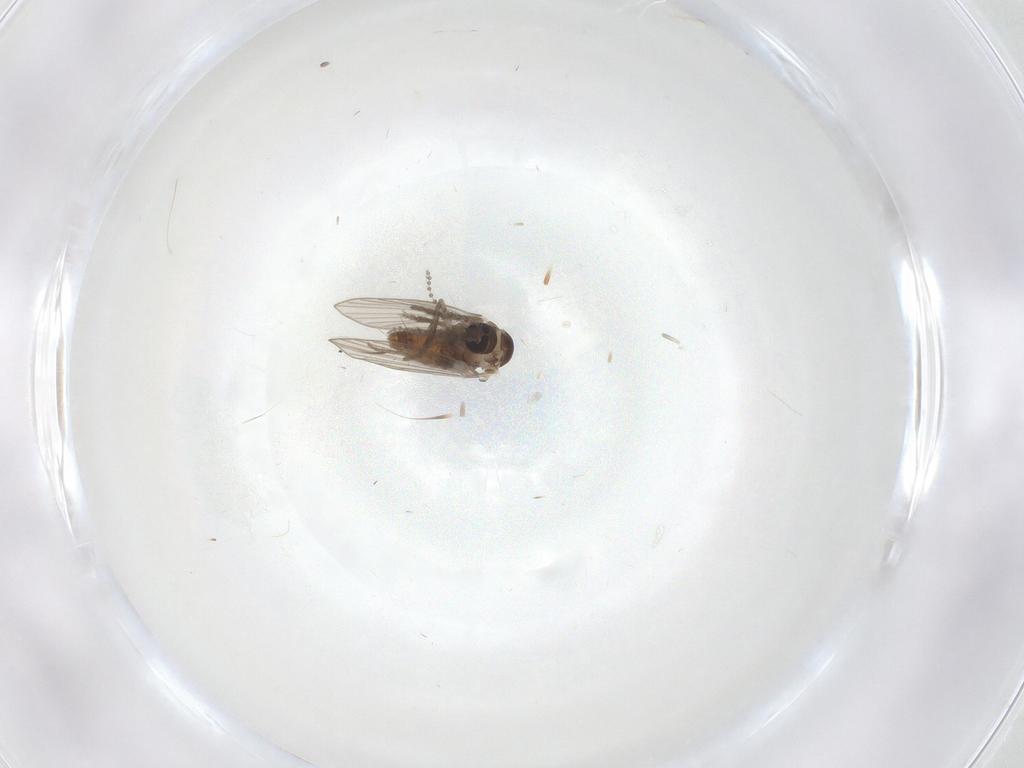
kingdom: Animalia
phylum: Arthropoda
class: Insecta
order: Diptera
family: Psychodidae
